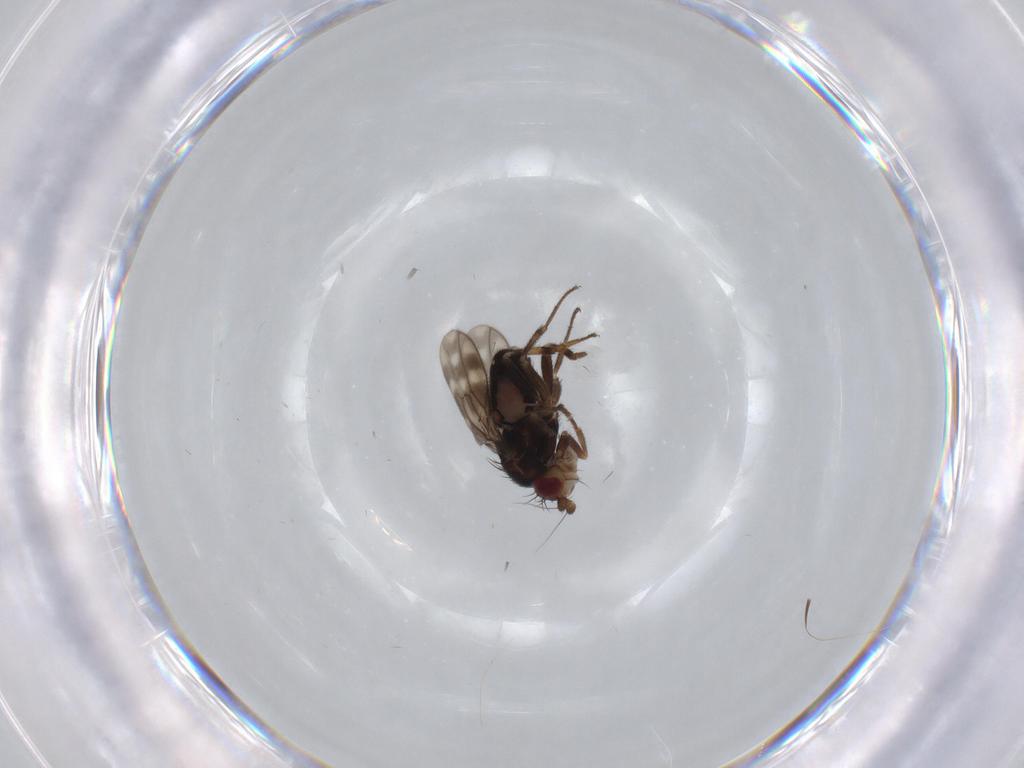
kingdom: Animalia
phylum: Arthropoda
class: Insecta
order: Diptera
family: Sphaeroceridae
